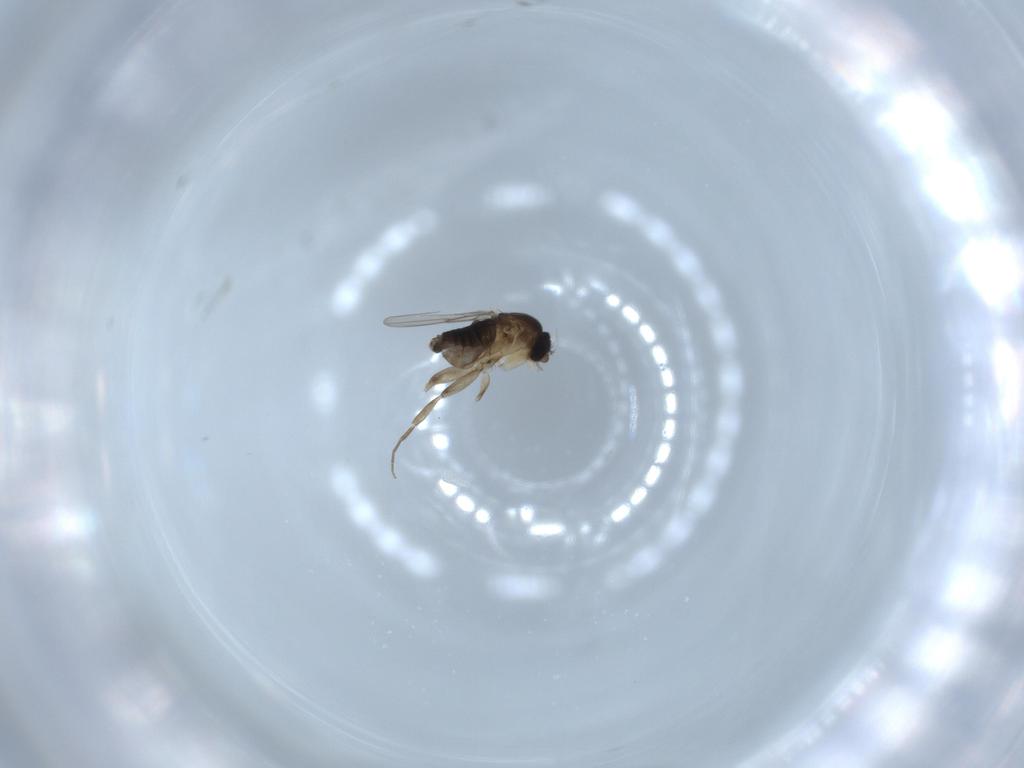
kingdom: Animalia
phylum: Arthropoda
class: Insecta
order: Diptera
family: Phoridae
